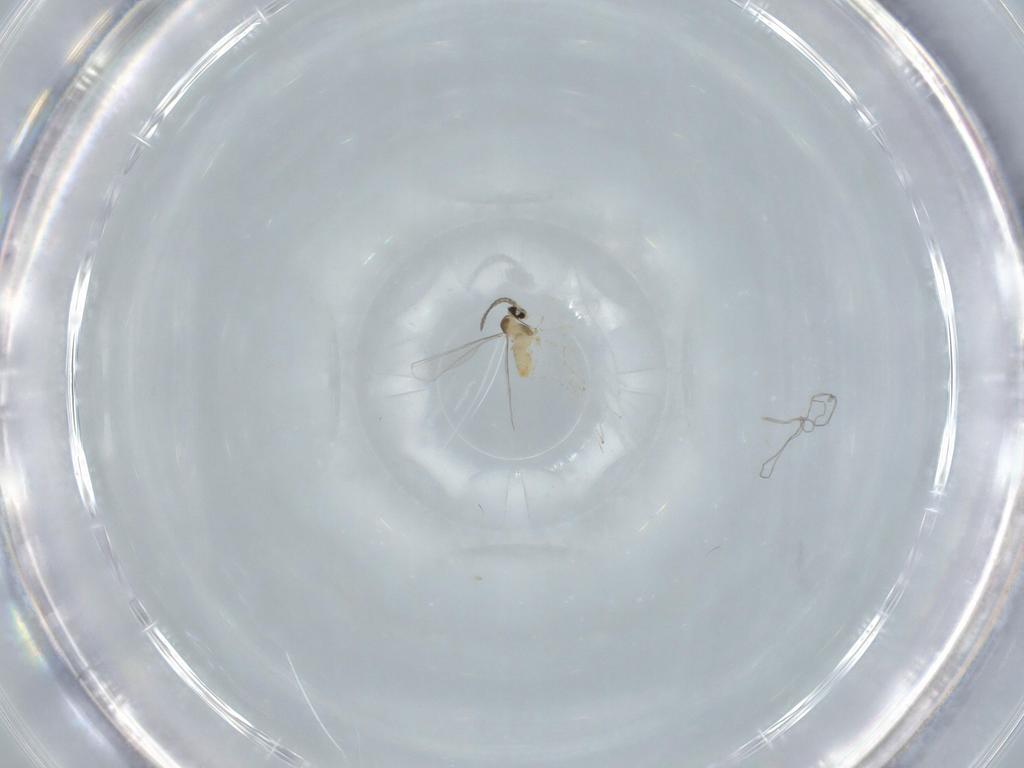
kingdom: Animalia
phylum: Arthropoda
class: Insecta
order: Diptera
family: Cecidomyiidae
